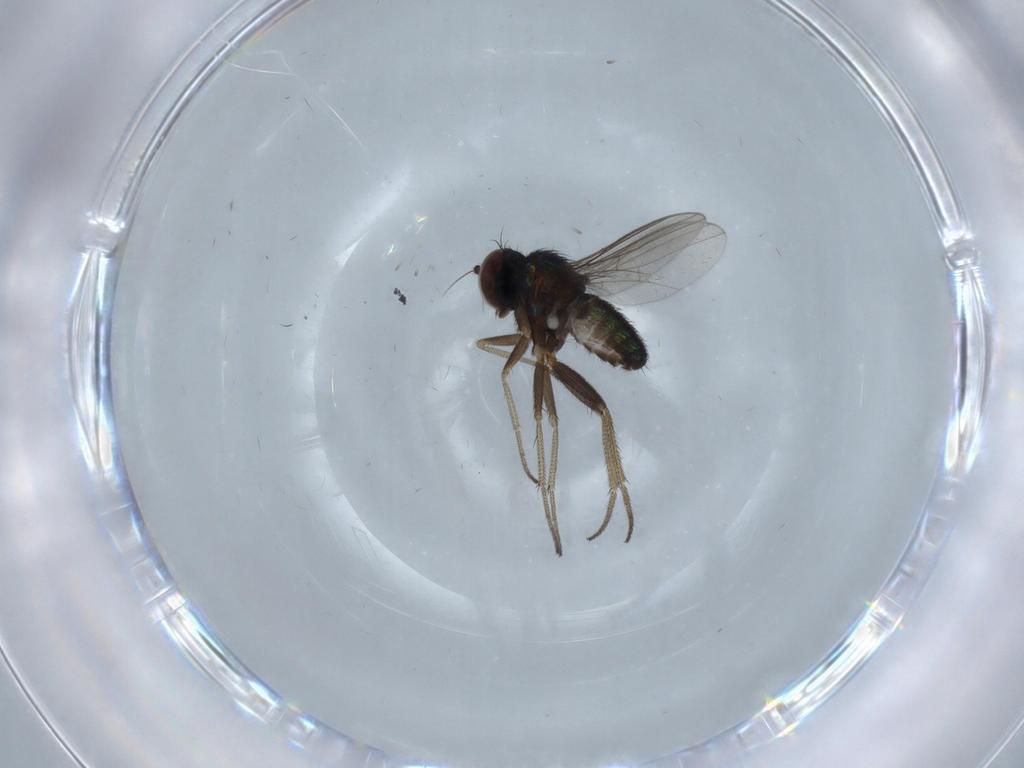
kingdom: Animalia
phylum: Arthropoda
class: Insecta
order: Diptera
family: Dolichopodidae
